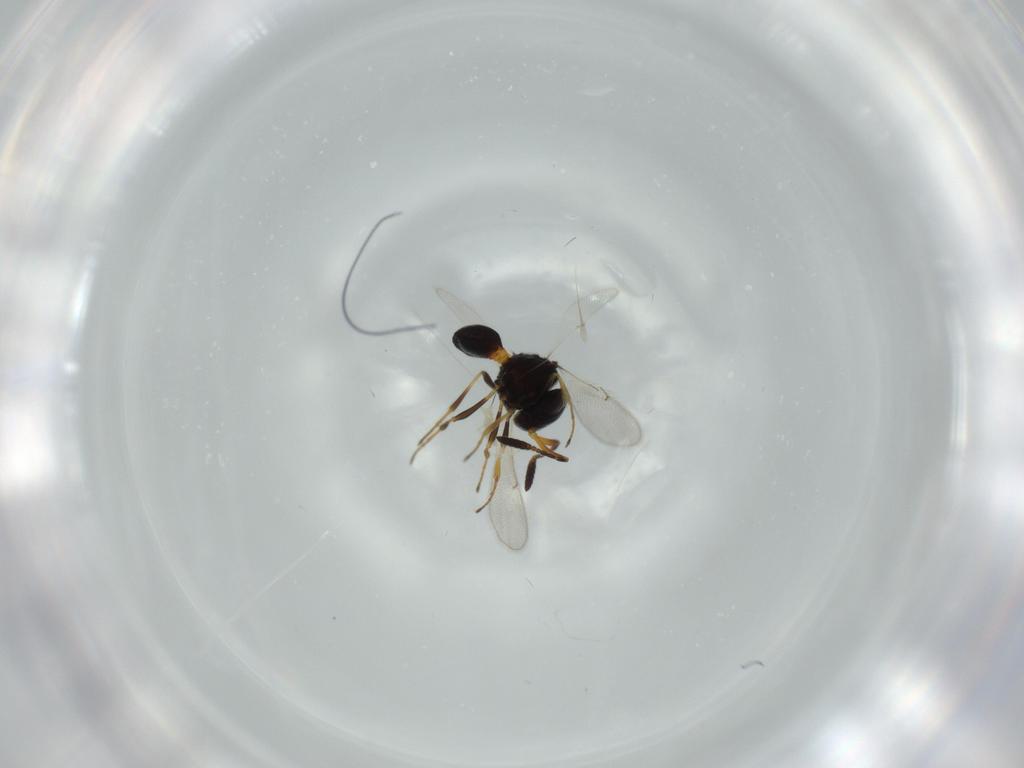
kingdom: Animalia
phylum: Arthropoda
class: Insecta
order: Hymenoptera
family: Scelionidae
